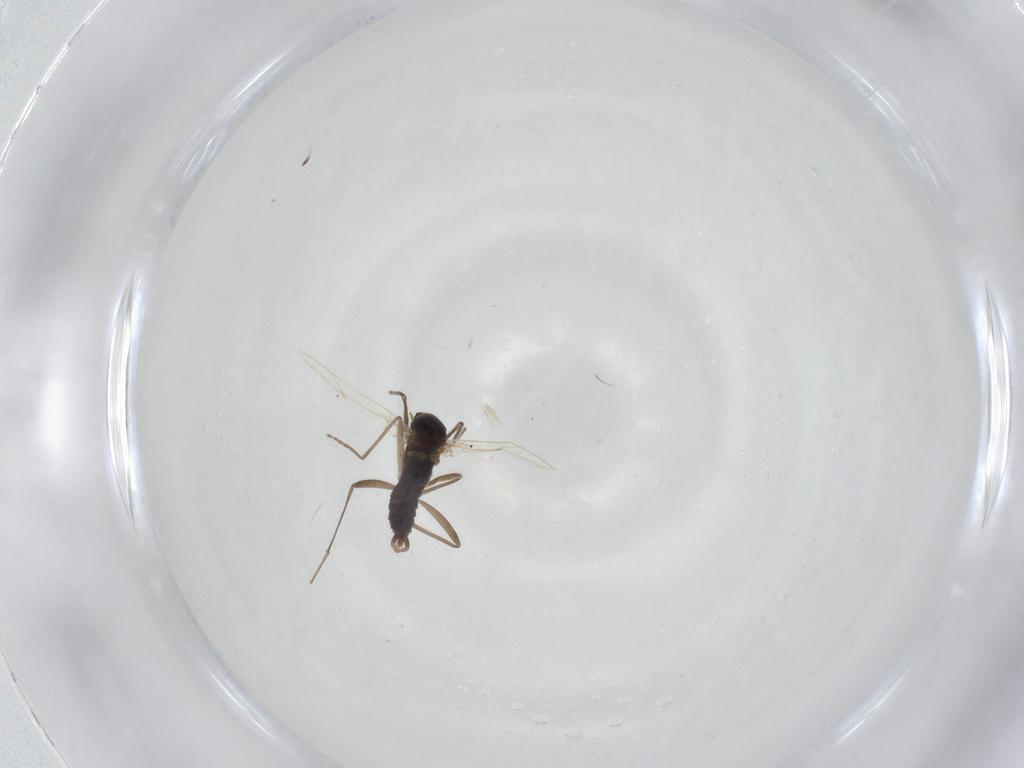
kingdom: Animalia
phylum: Arthropoda
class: Insecta
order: Diptera
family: Cecidomyiidae
